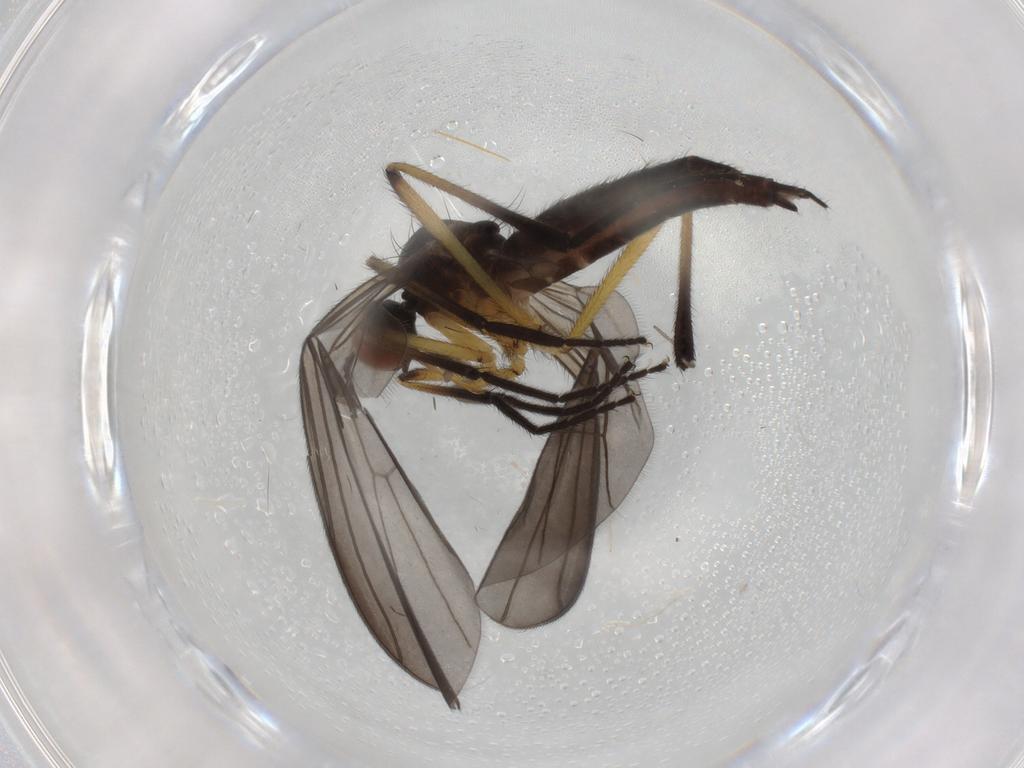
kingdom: Animalia
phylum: Arthropoda
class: Insecta
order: Diptera
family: Chironomidae
